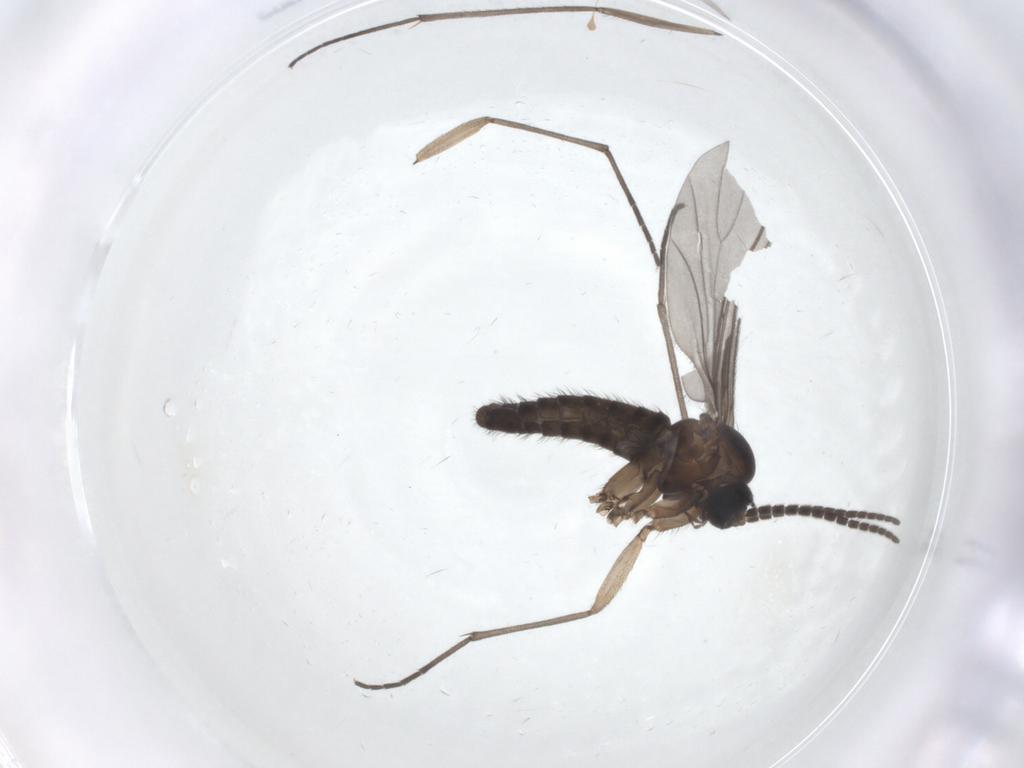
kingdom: Animalia
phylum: Arthropoda
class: Insecta
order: Diptera
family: Sciaridae
